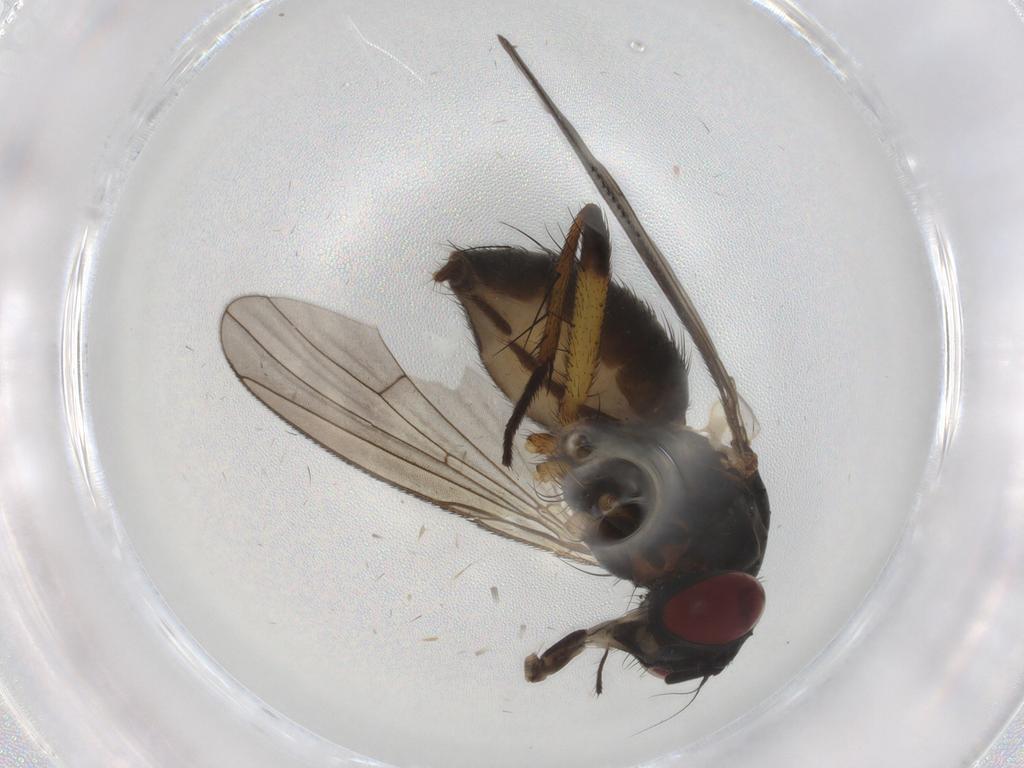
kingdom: Animalia
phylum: Arthropoda
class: Insecta
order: Diptera
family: Muscidae
